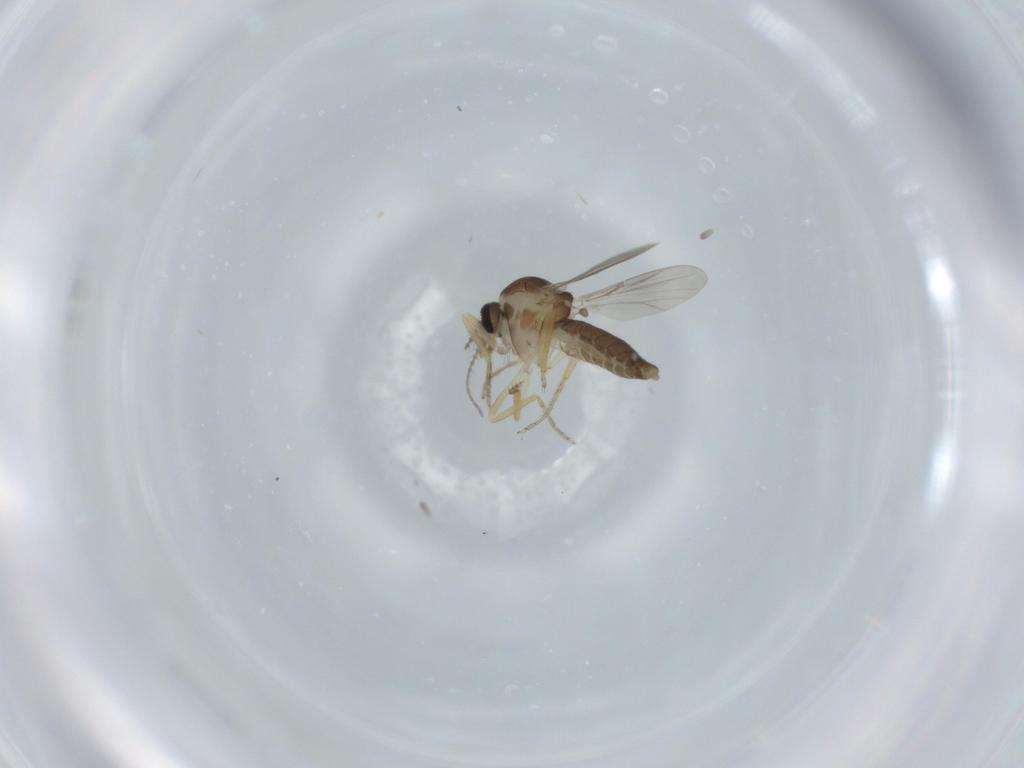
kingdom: Animalia
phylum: Arthropoda
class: Insecta
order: Diptera
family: Ceratopogonidae
